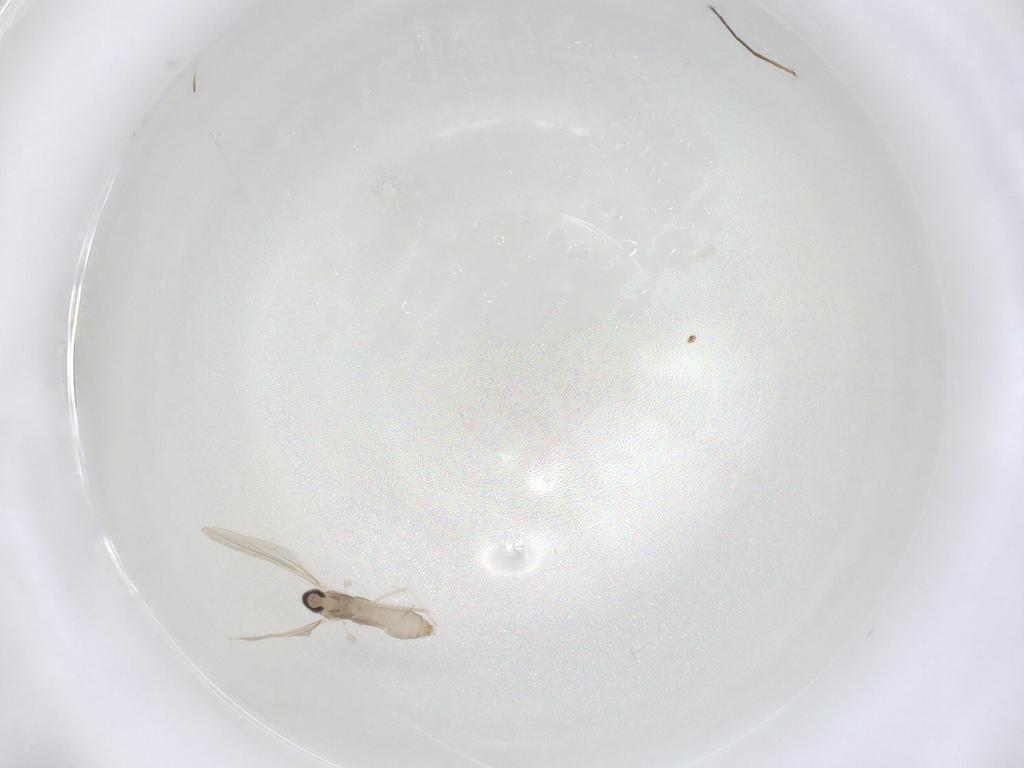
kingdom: Animalia
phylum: Arthropoda
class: Insecta
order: Diptera
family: Cecidomyiidae
